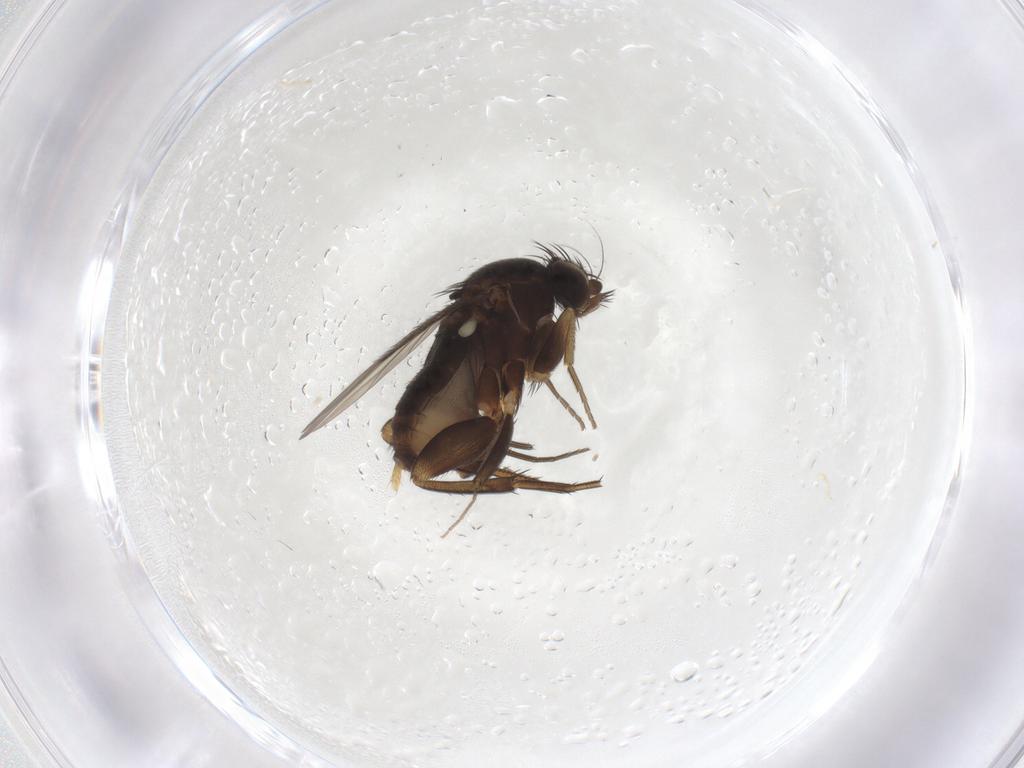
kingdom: Animalia
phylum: Arthropoda
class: Insecta
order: Diptera
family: Phoridae
